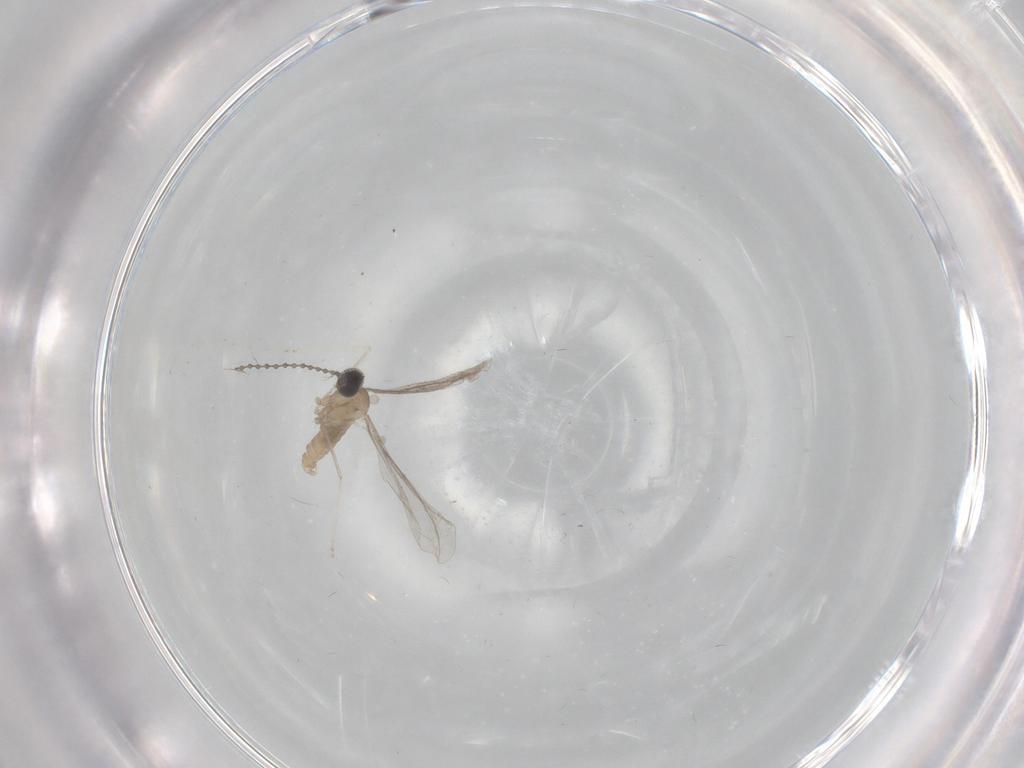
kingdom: Animalia
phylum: Arthropoda
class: Insecta
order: Diptera
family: Cecidomyiidae
